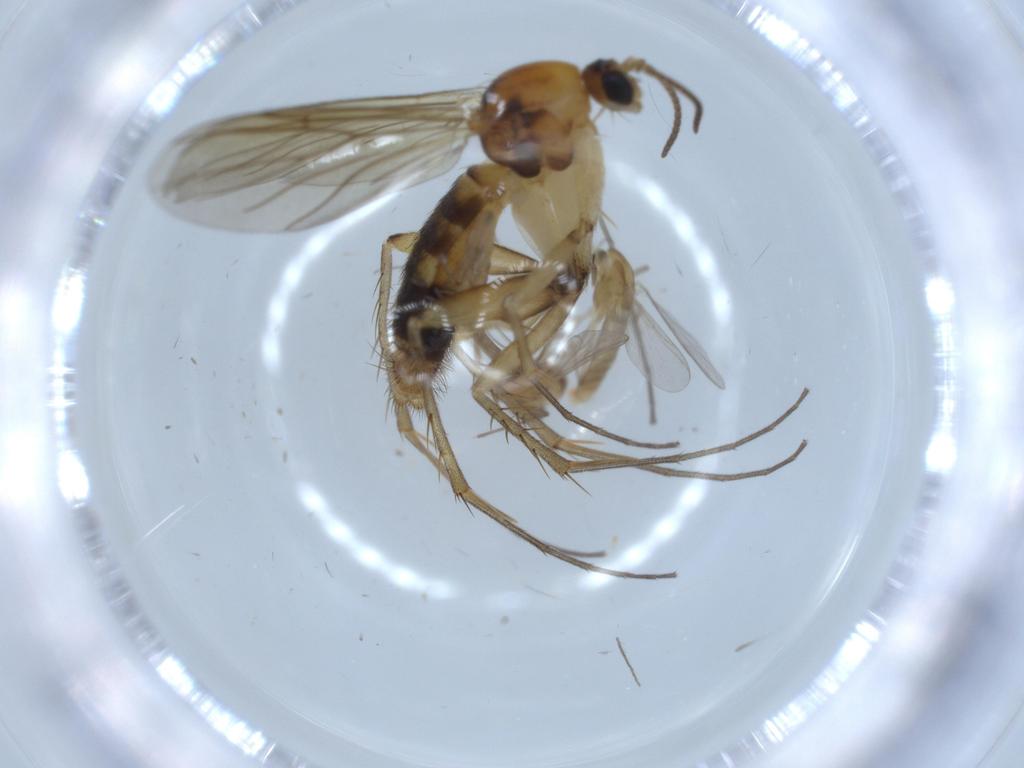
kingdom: Animalia
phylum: Arthropoda
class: Insecta
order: Diptera
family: Chironomidae
